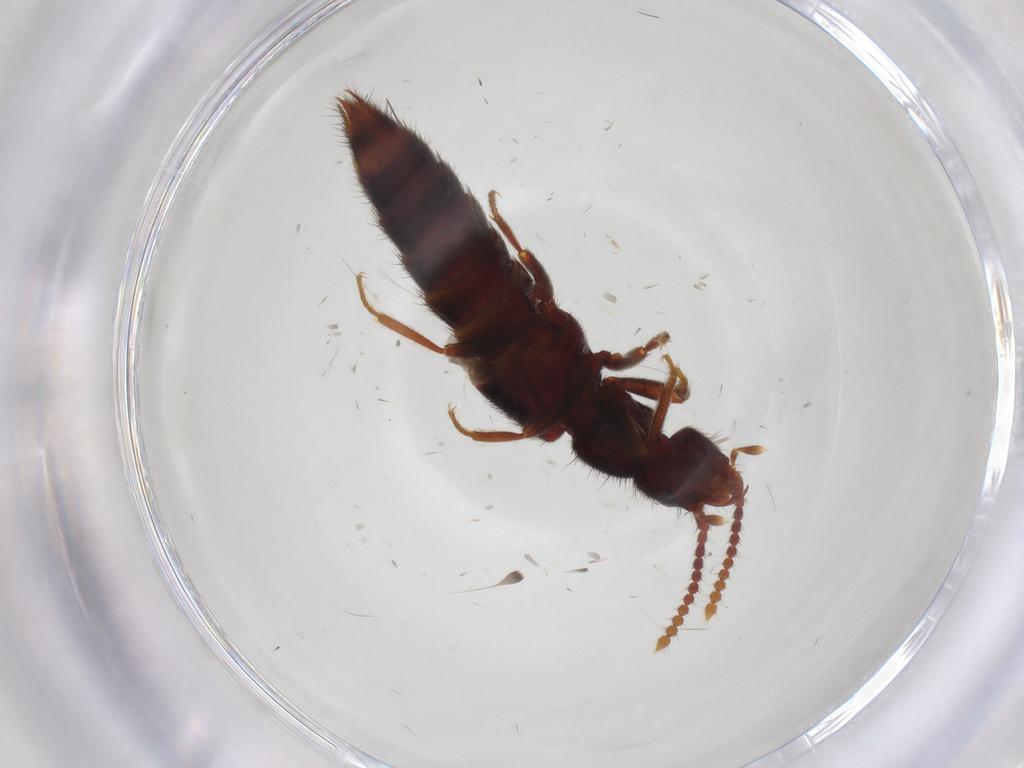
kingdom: Animalia
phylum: Arthropoda
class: Insecta
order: Coleoptera
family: Staphylinidae
